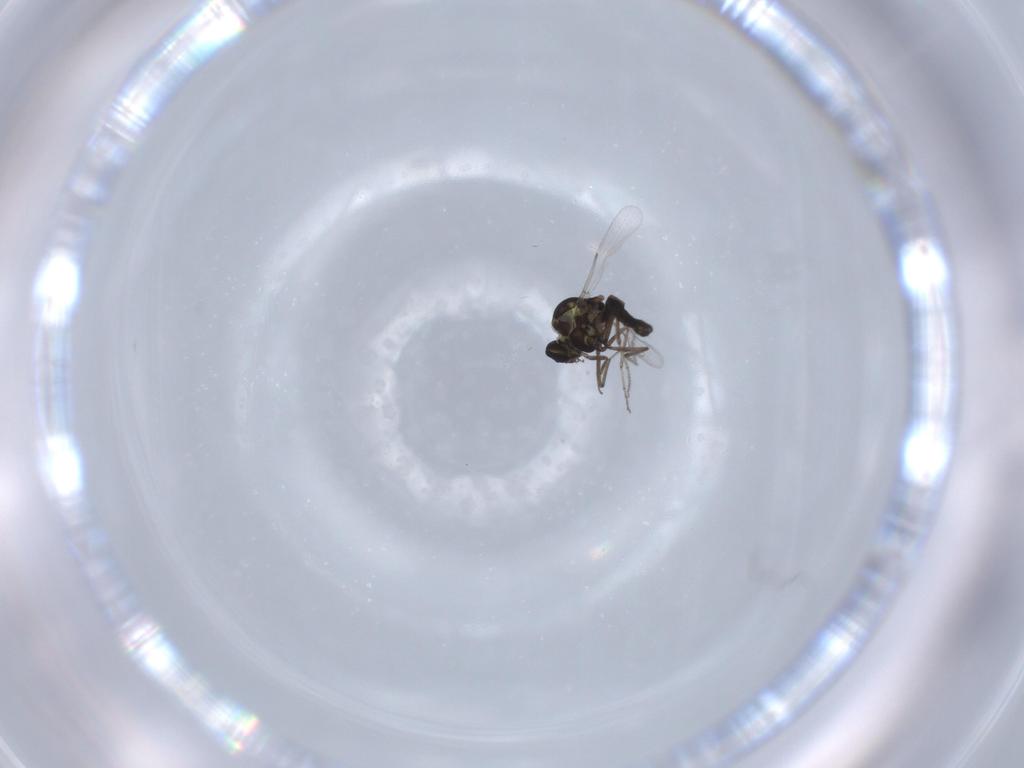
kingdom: Animalia
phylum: Arthropoda
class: Insecta
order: Diptera
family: Ceratopogonidae
